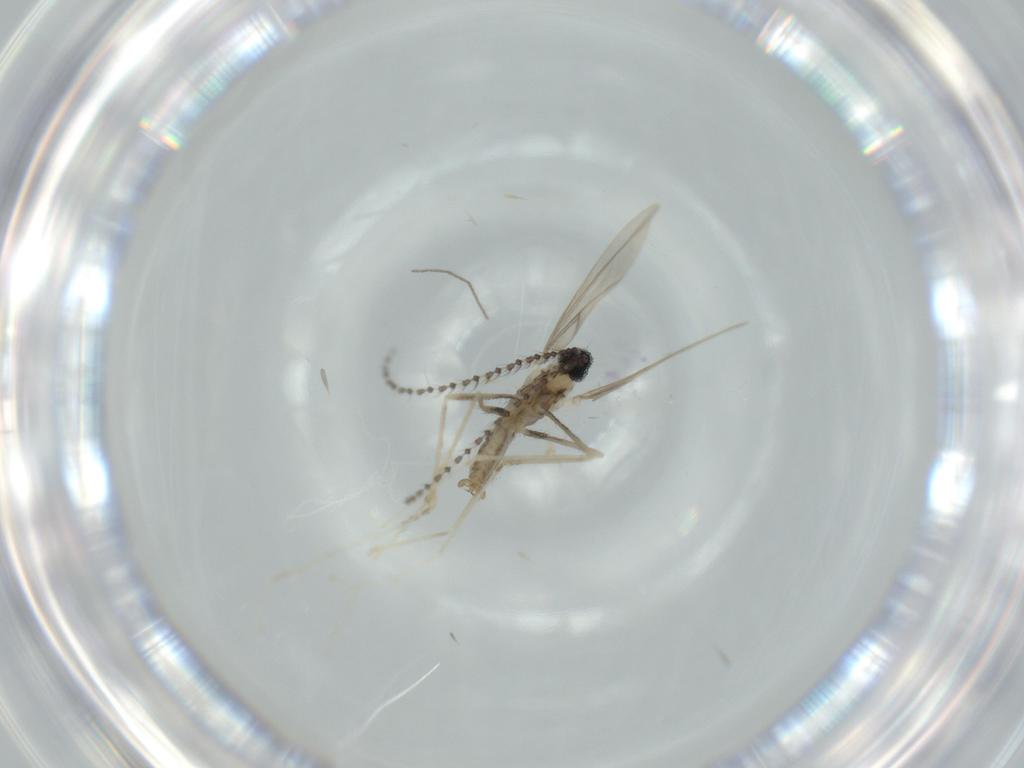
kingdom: Animalia
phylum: Arthropoda
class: Insecta
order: Diptera
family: Cecidomyiidae
